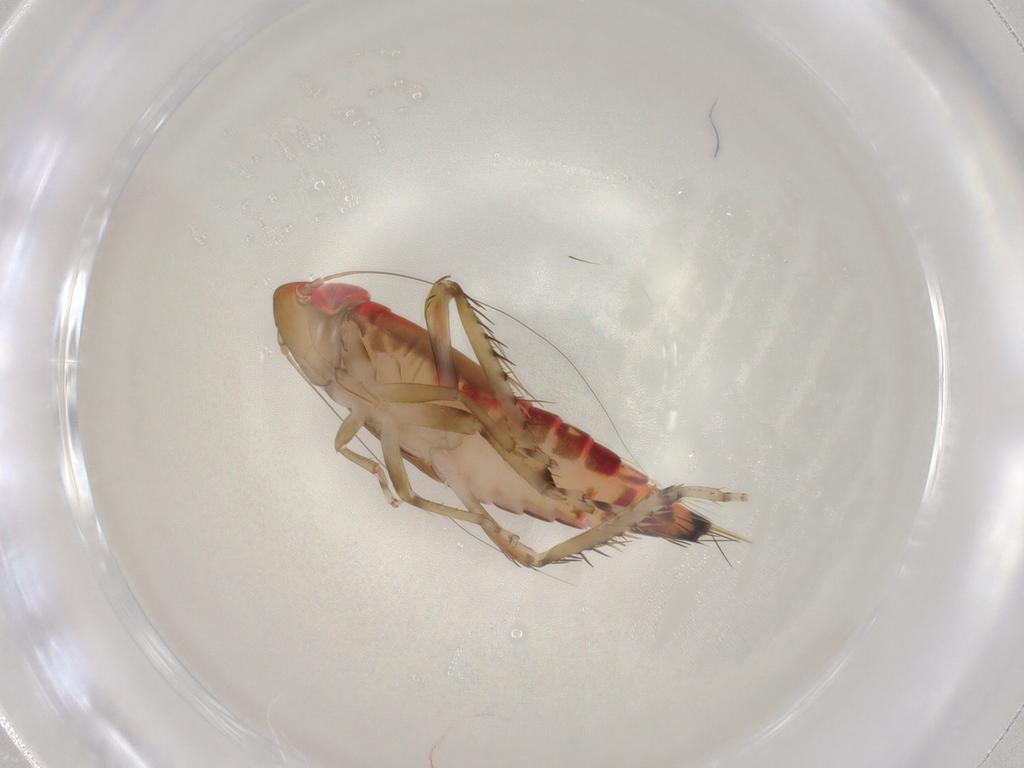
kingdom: Animalia
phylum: Arthropoda
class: Insecta
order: Hemiptera
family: Cicadellidae
